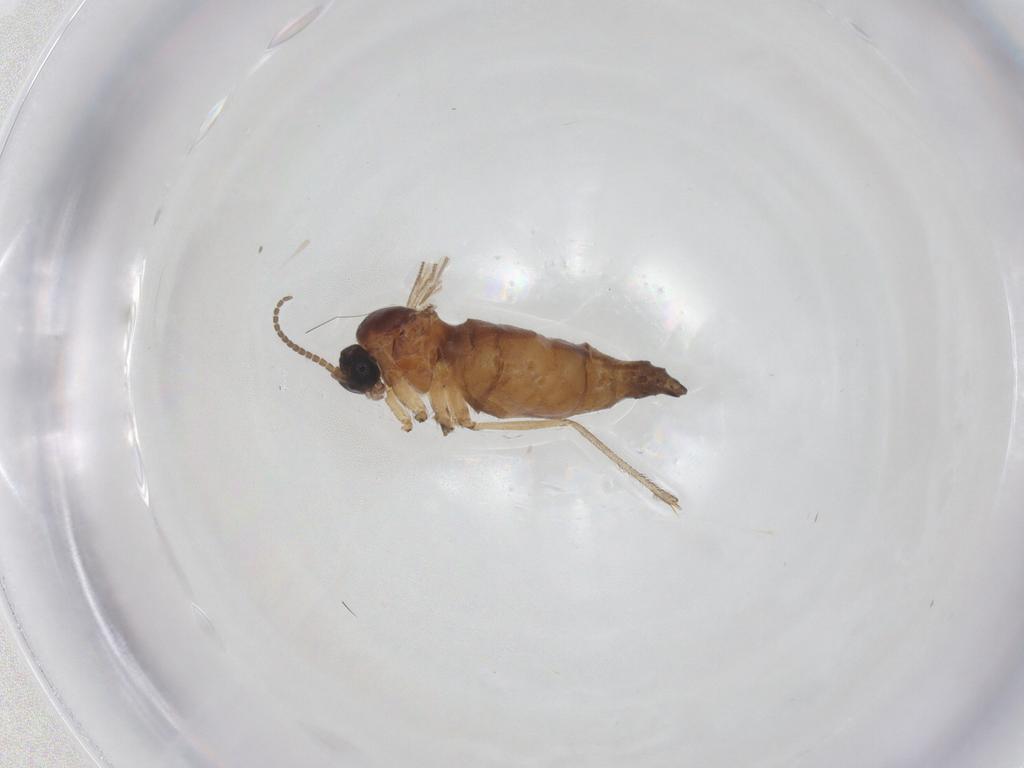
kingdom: Animalia
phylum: Arthropoda
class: Insecta
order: Diptera
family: Sciaridae
